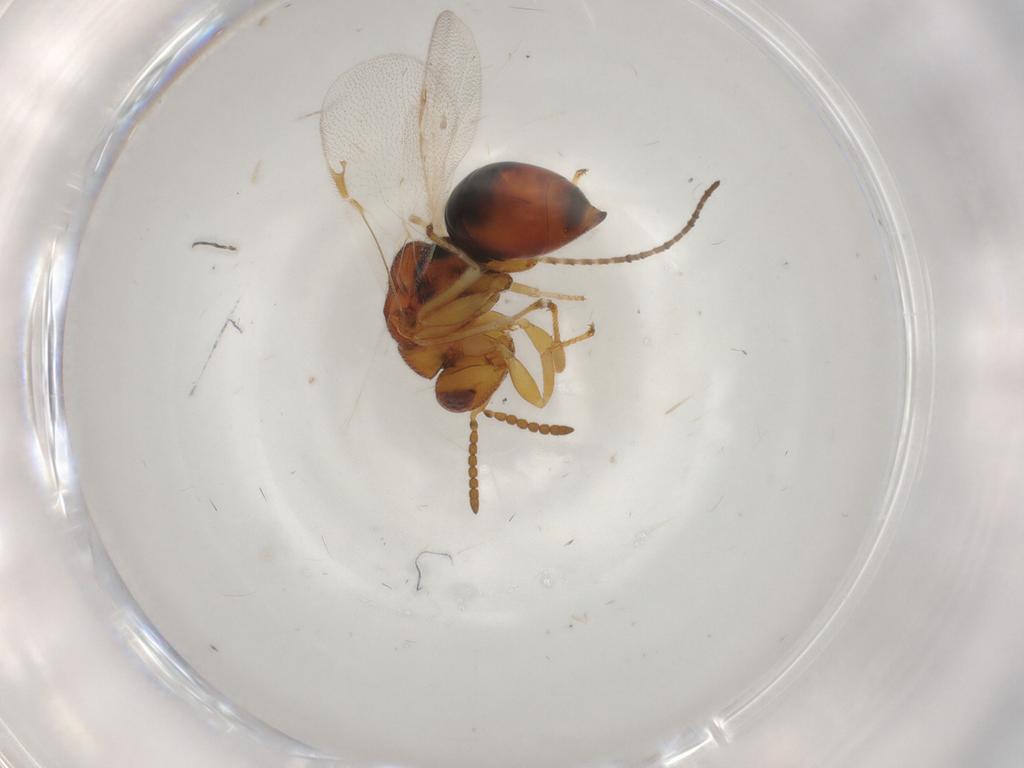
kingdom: Animalia
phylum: Arthropoda
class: Insecta
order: Hymenoptera
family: Eurytomidae
